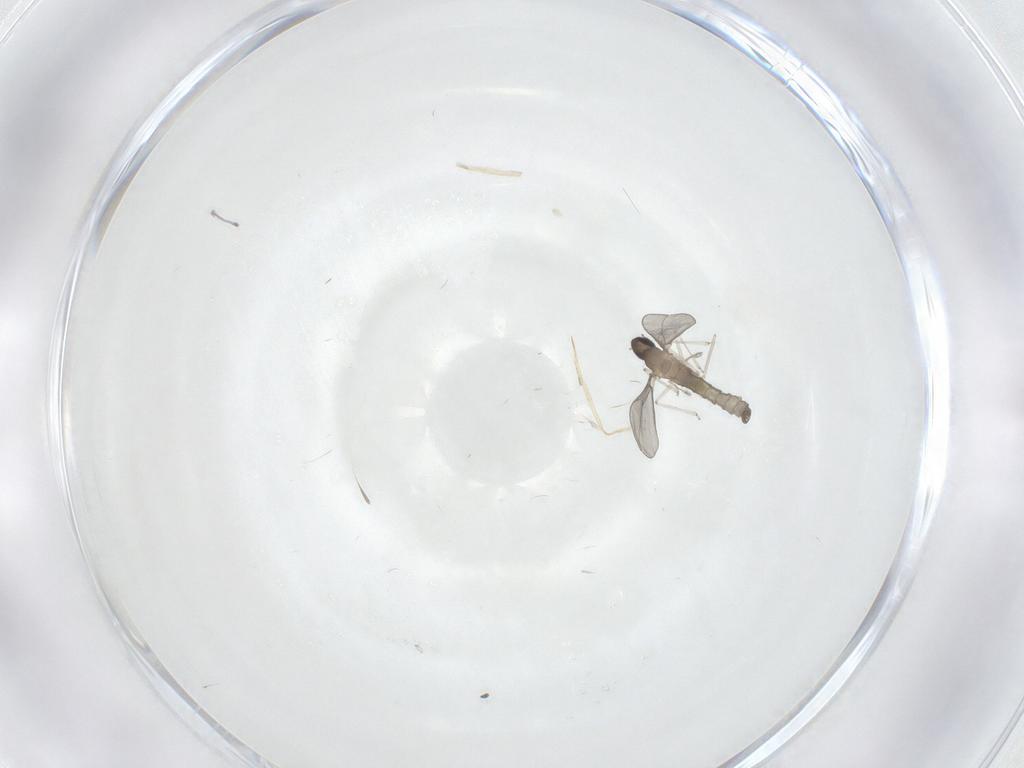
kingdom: Animalia
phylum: Arthropoda
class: Insecta
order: Diptera
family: Cecidomyiidae
